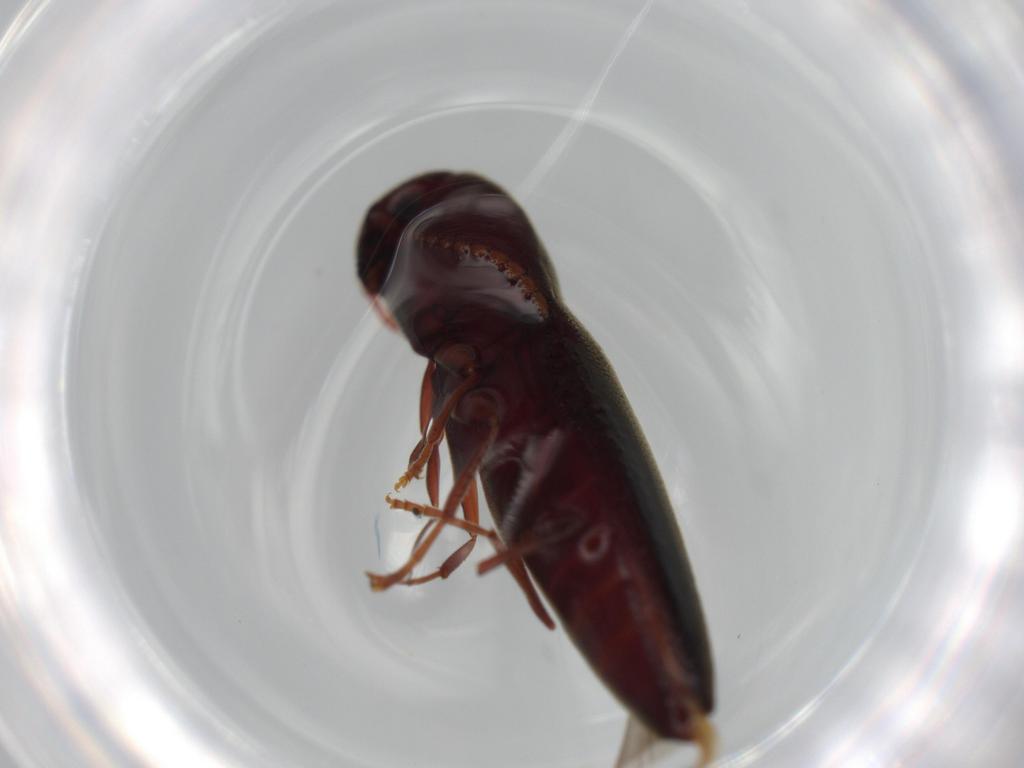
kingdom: Animalia
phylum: Arthropoda
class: Insecta
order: Coleoptera
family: Eucnemidae
